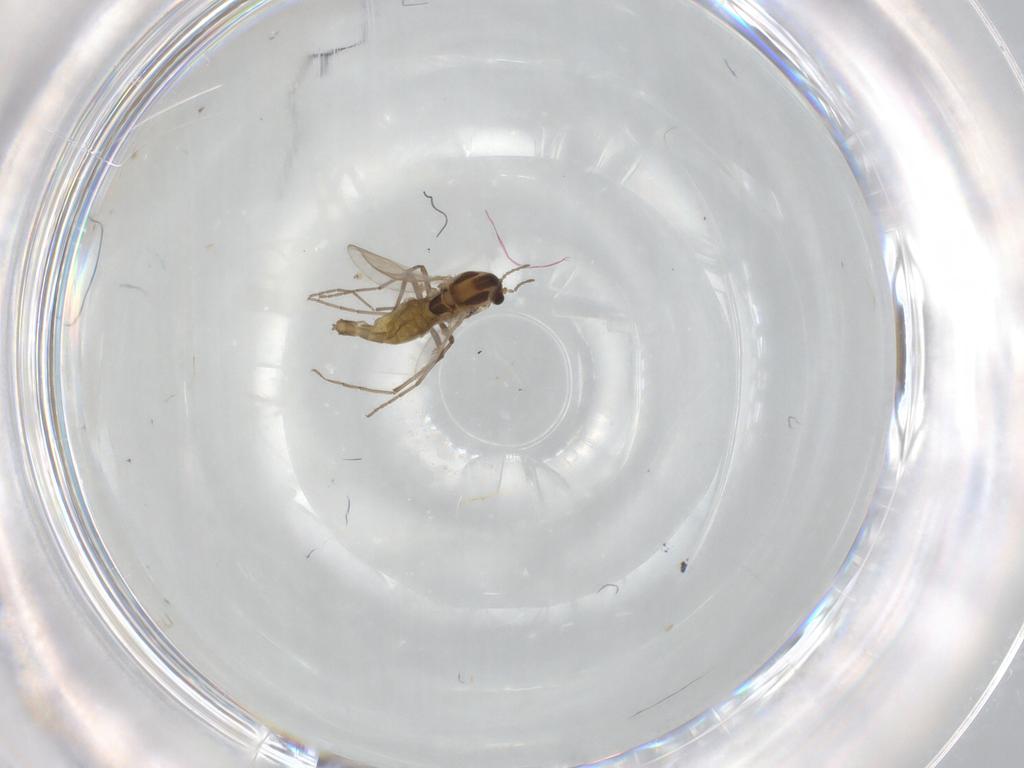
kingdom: Animalia
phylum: Arthropoda
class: Insecta
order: Diptera
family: Chironomidae
